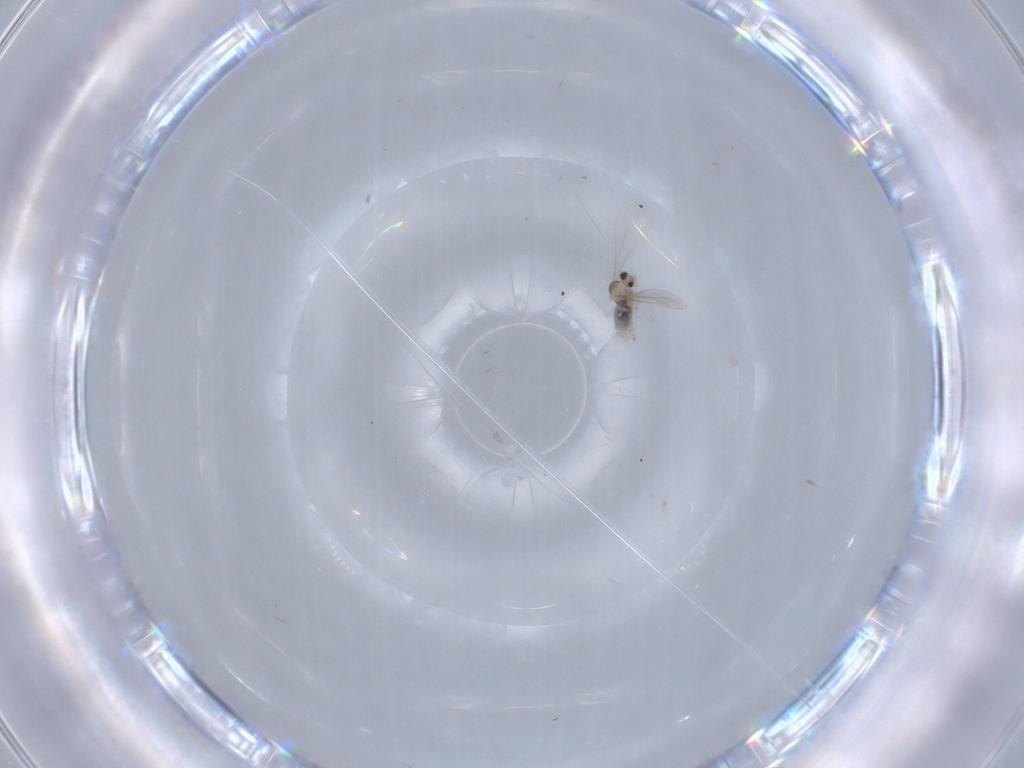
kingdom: Animalia
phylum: Arthropoda
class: Insecta
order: Diptera
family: Cecidomyiidae
